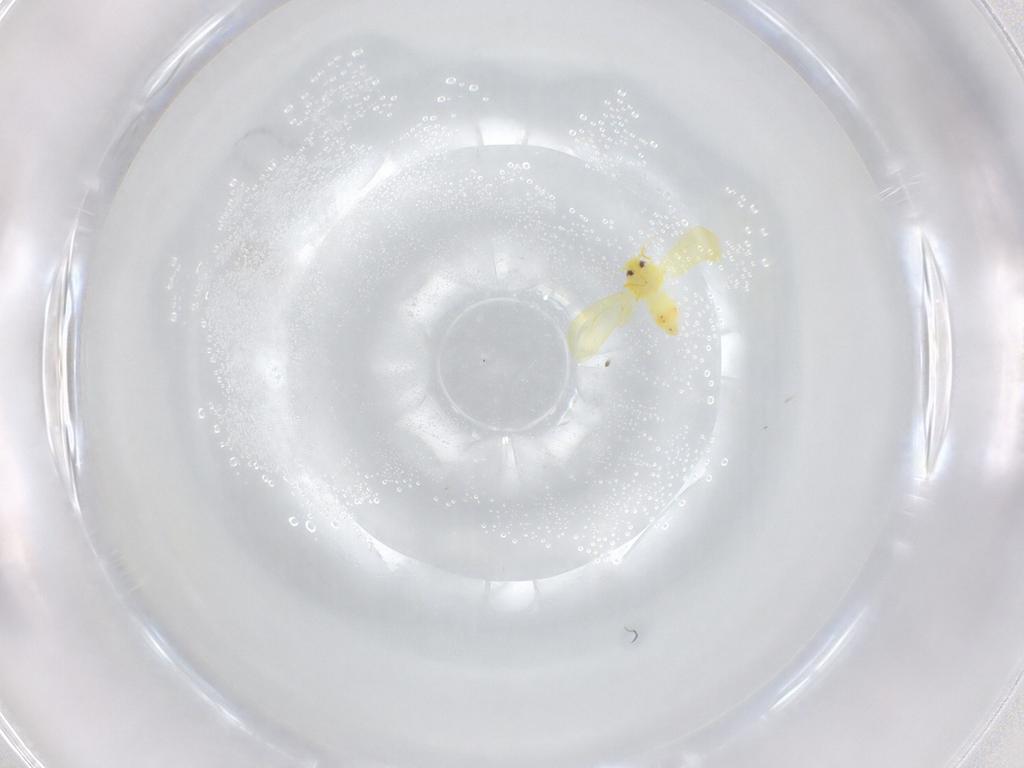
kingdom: Animalia
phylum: Arthropoda
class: Insecta
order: Hemiptera
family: Aleyrodidae
